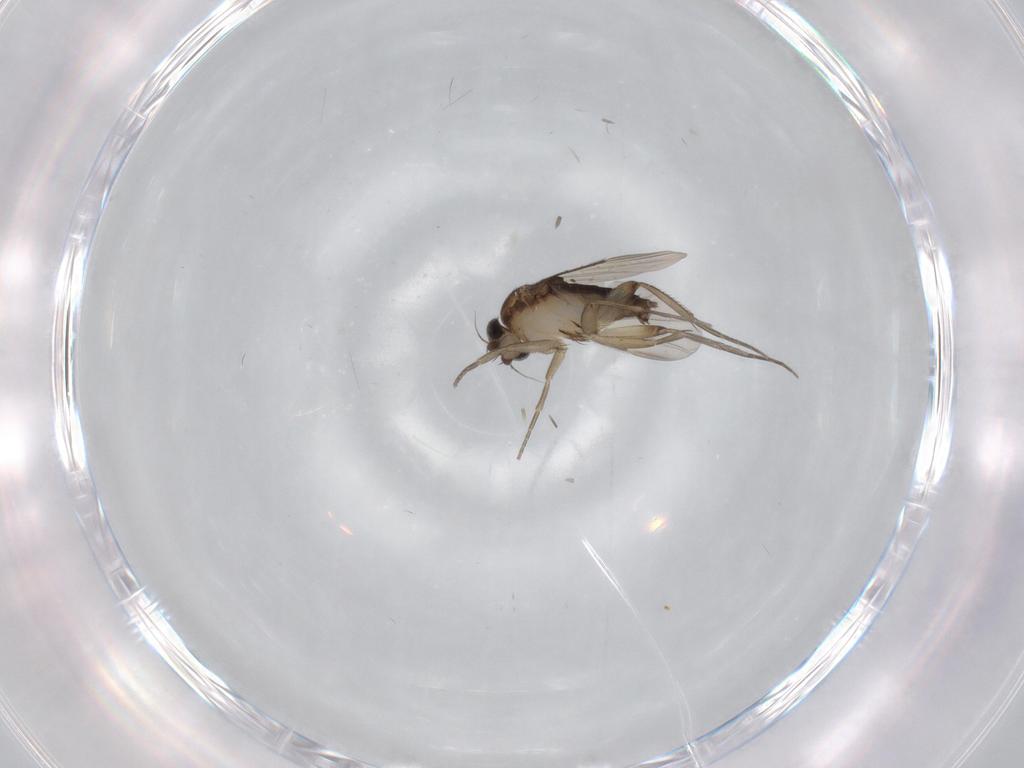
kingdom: Animalia
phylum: Arthropoda
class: Insecta
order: Diptera
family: Phoridae
